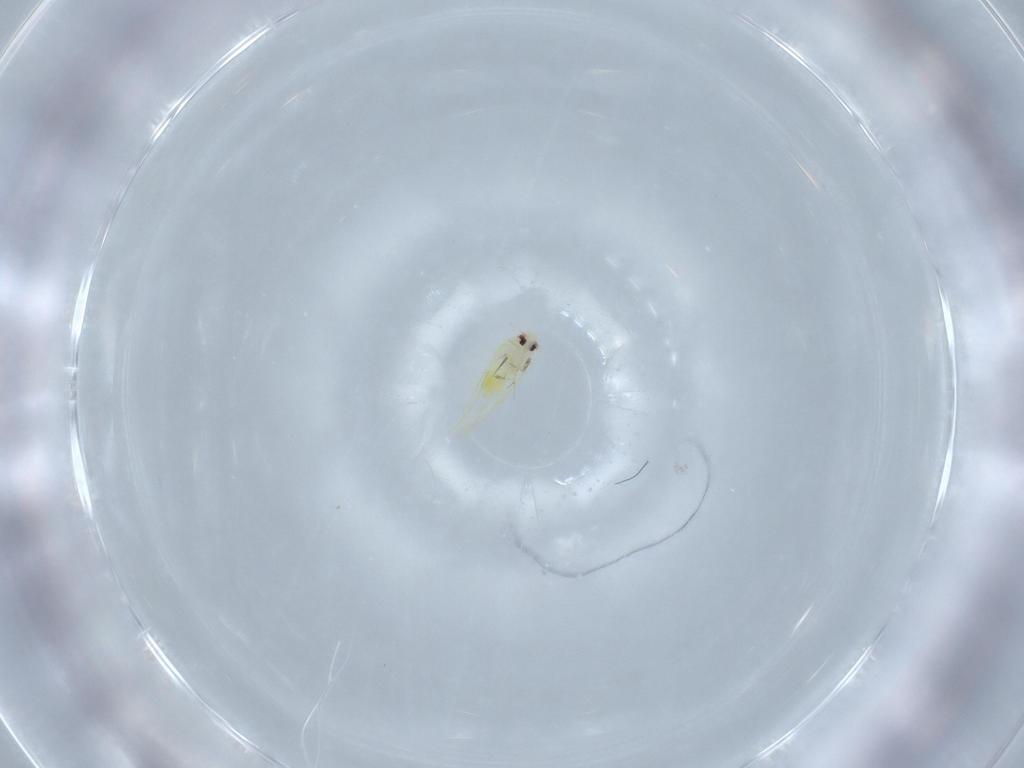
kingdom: Animalia
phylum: Arthropoda
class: Insecta
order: Hemiptera
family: Aleyrodidae
